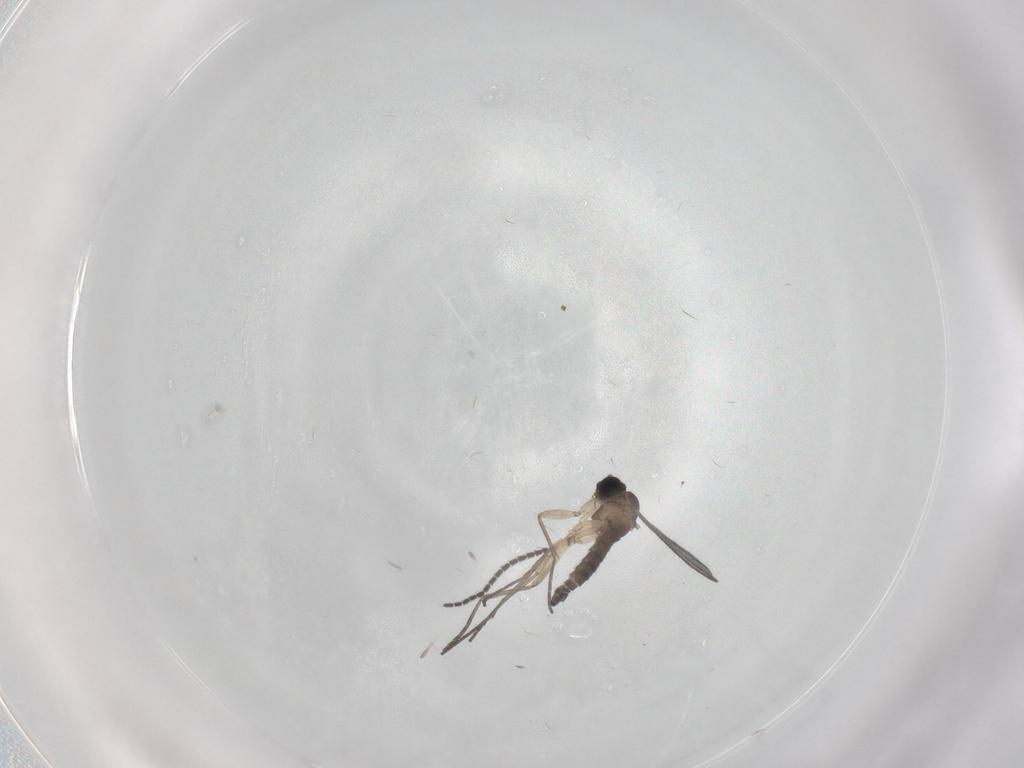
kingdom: Animalia
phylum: Arthropoda
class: Insecta
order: Diptera
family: Sciaridae
